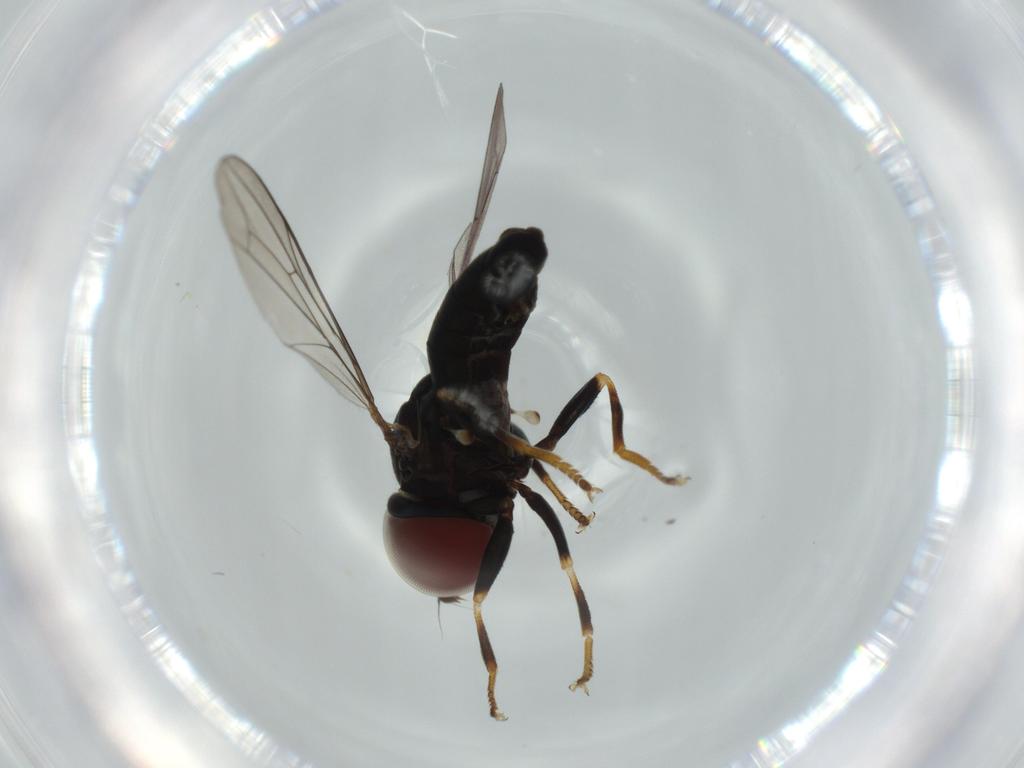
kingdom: Animalia
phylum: Arthropoda
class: Insecta
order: Diptera
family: Pipunculidae
